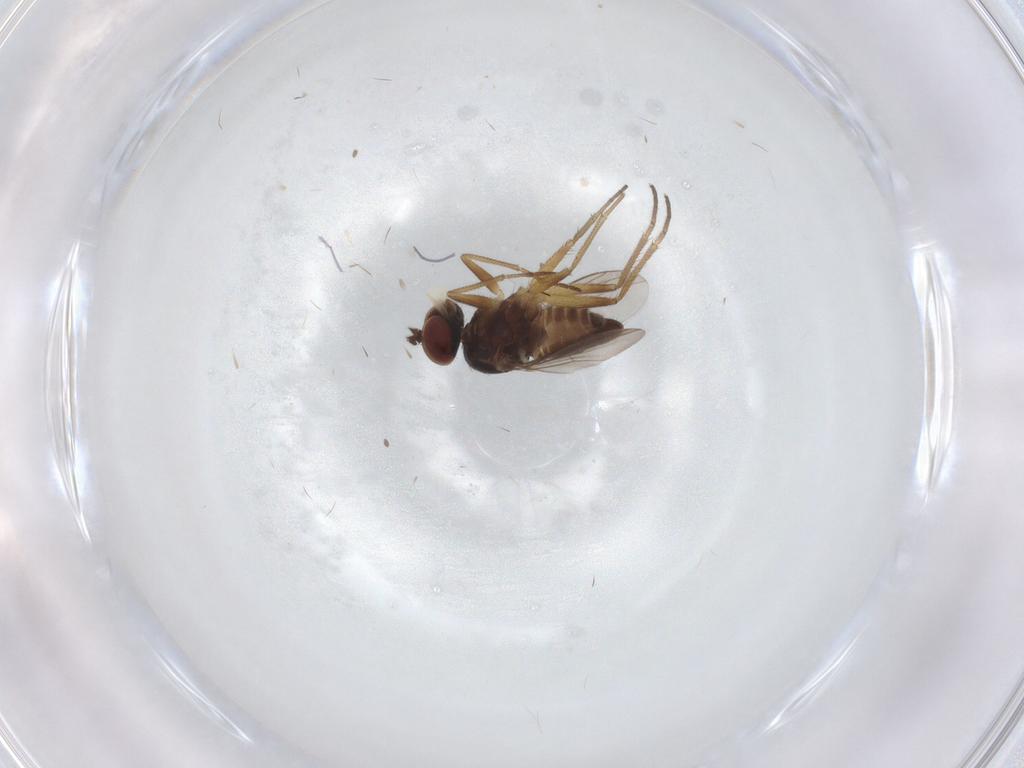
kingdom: Animalia
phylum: Arthropoda
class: Insecta
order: Diptera
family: Dolichopodidae
